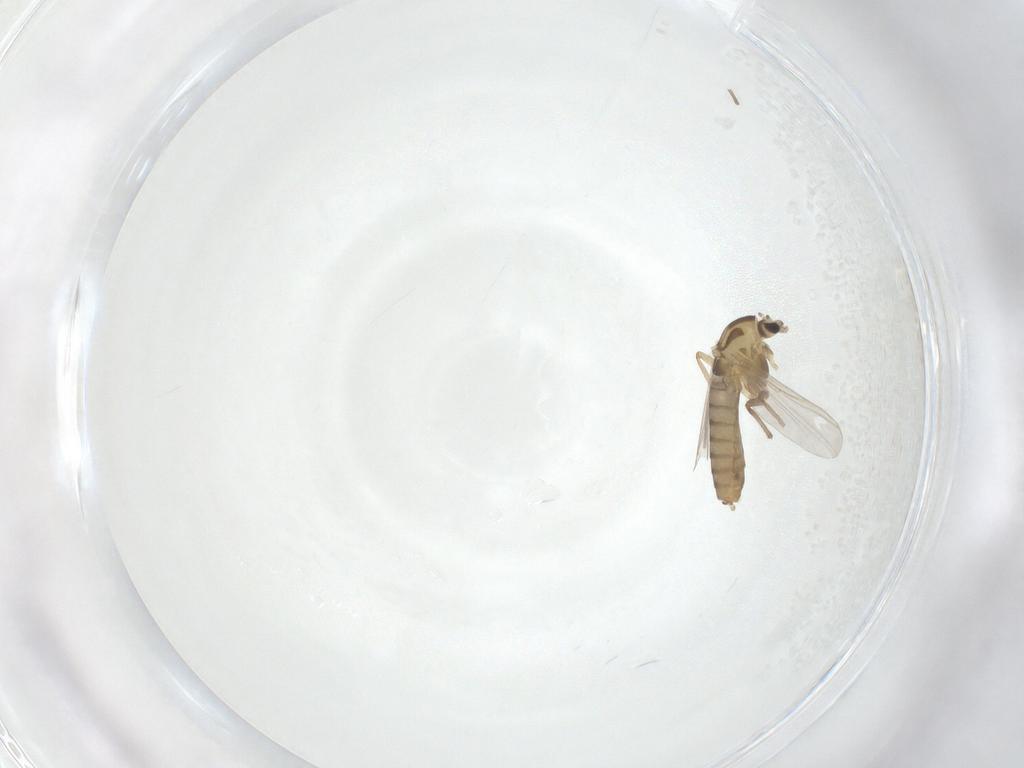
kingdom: Animalia
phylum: Arthropoda
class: Insecta
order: Diptera
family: Chironomidae
